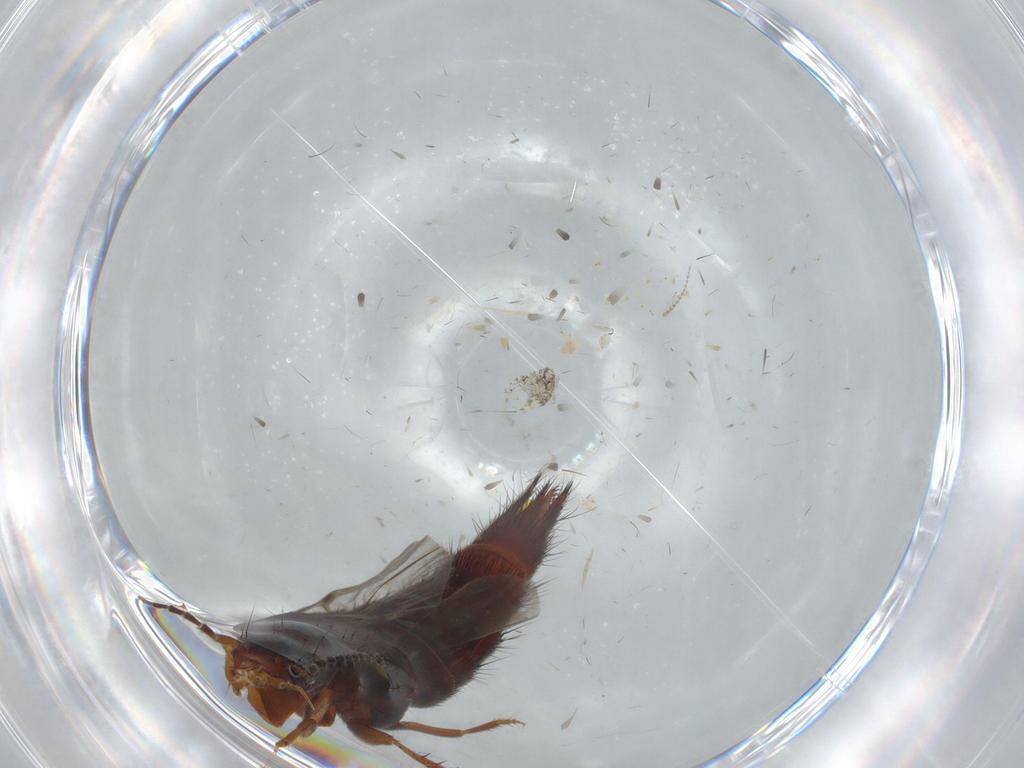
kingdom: Animalia
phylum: Arthropoda
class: Insecta
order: Coleoptera
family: Staphylinidae
